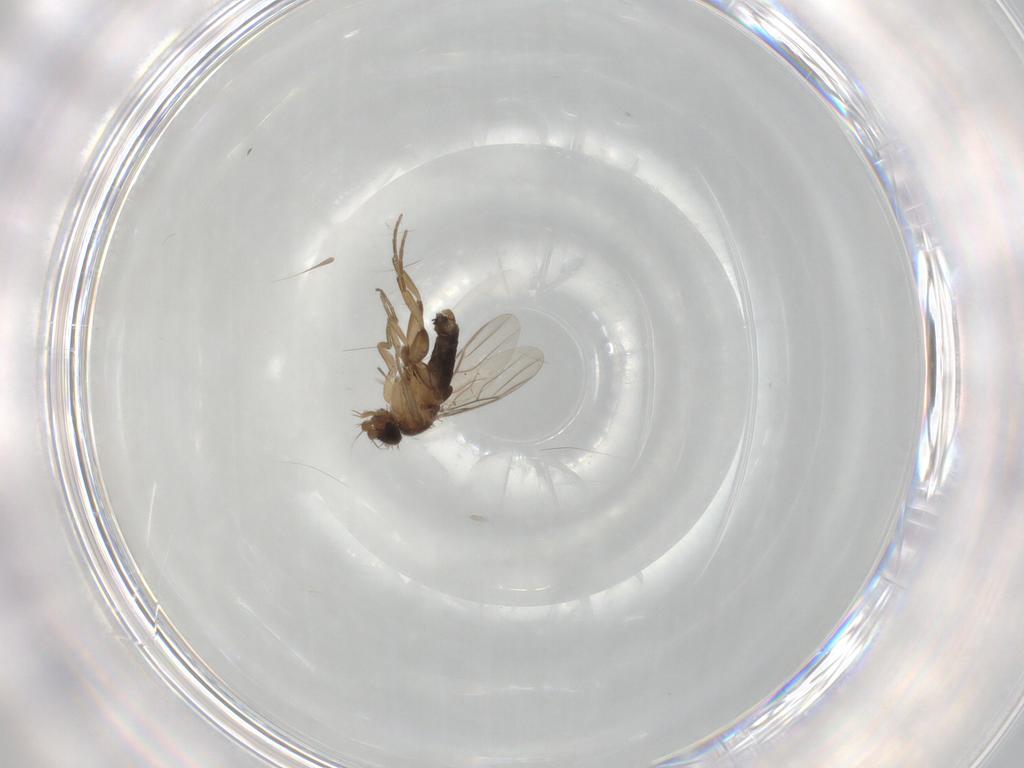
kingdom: Animalia
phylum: Arthropoda
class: Insecta
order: Diptera
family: Phoridae
